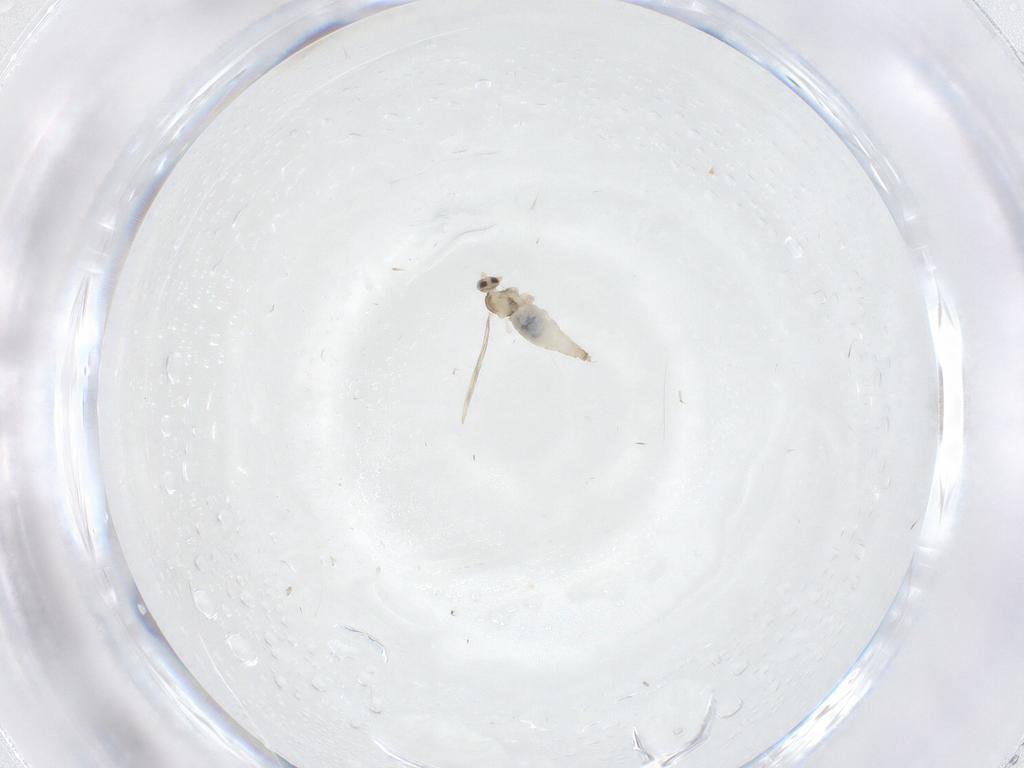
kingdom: Animalia
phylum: Arthropoda
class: Insecta
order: Diptera
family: Cecidomyiidae
